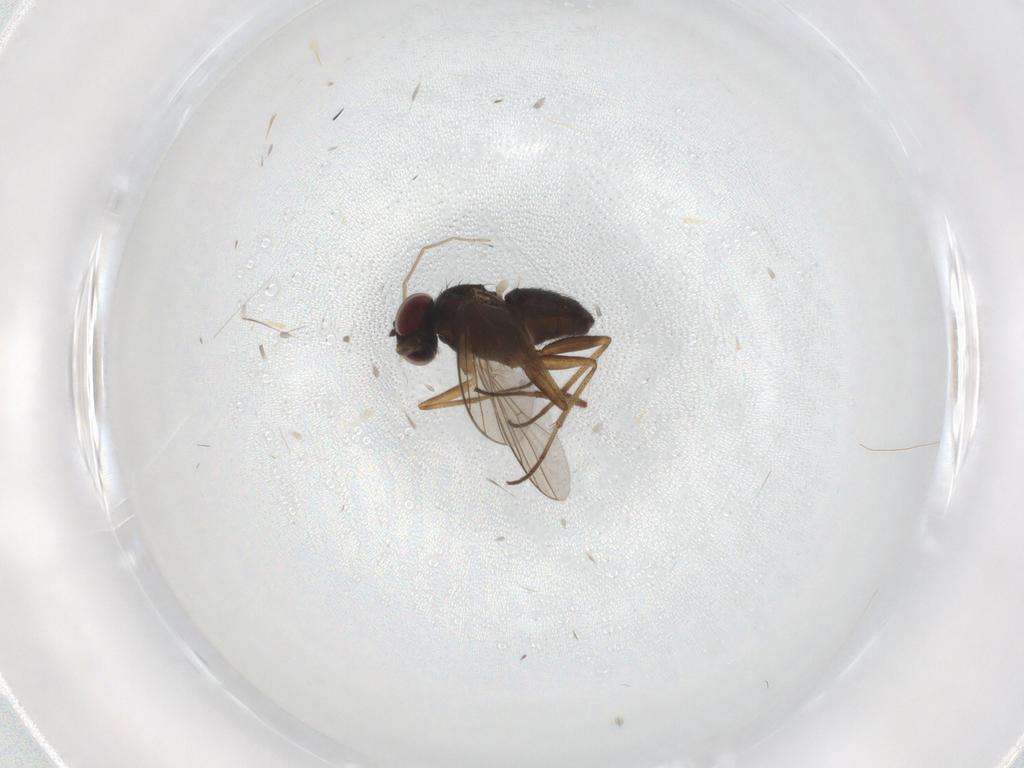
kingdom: Animalia
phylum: Arthropoda
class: Insecta
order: Diptera
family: Dolichopodidae
